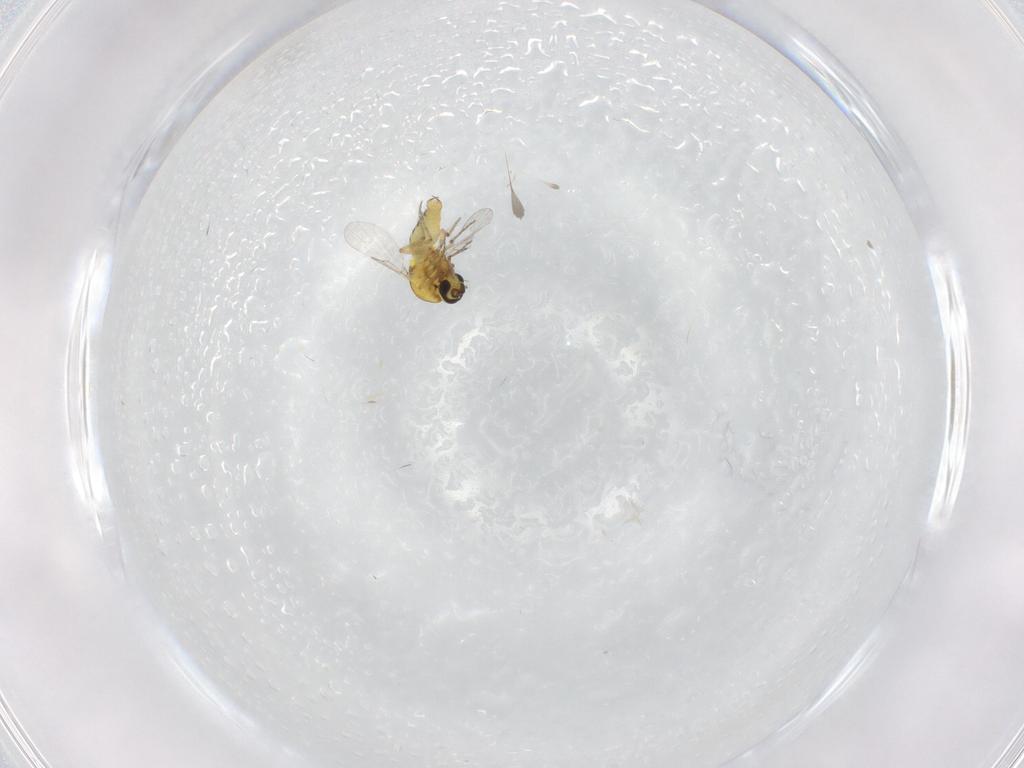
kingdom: Animalia
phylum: Arthropoda
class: Insecta
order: Diptera
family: Ceratopogonidae
